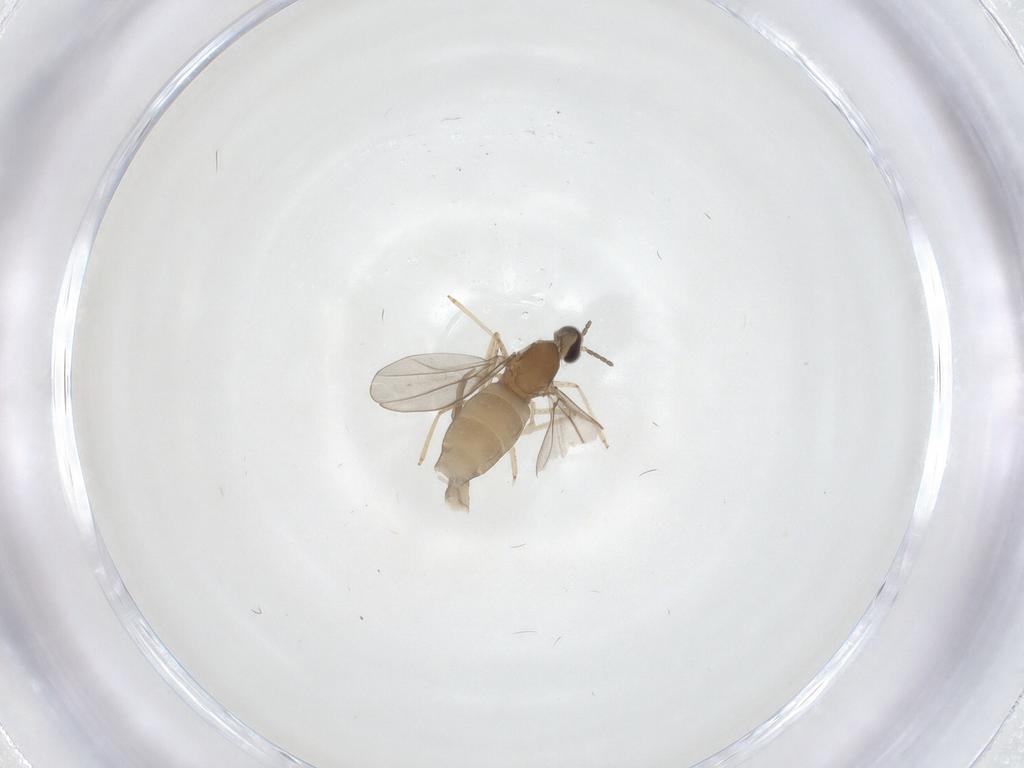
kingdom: Animalia
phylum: Arthropoda
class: Insecta
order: Diptera
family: Cecidomyiidae
